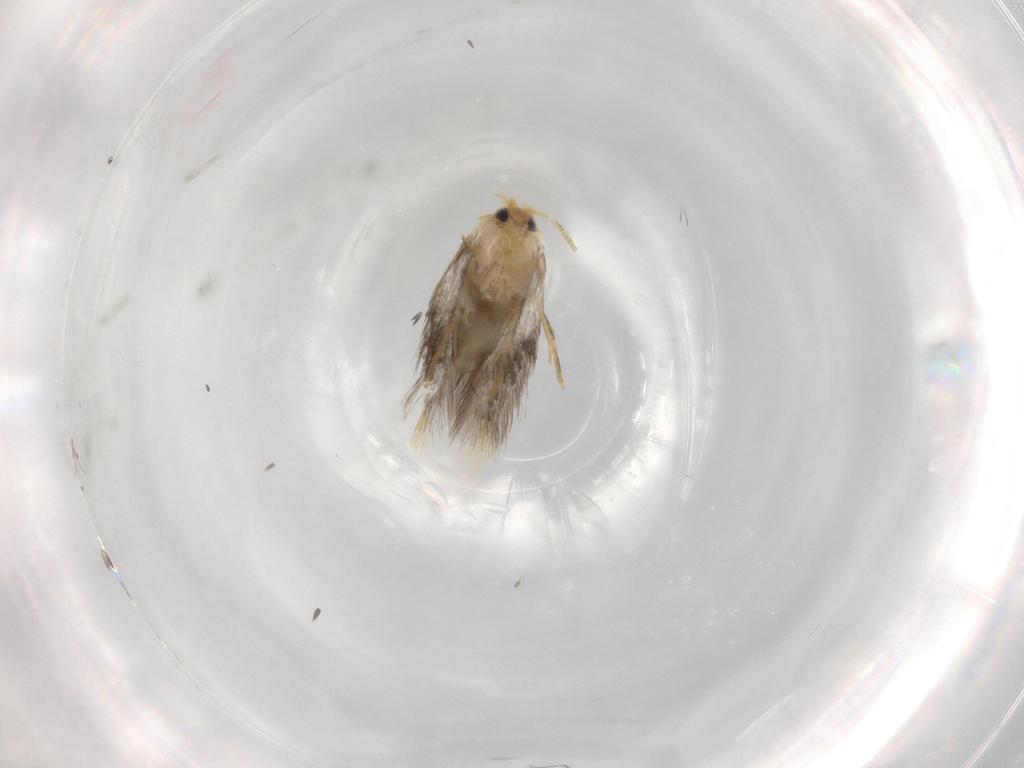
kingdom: Animalia
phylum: Arthropoda
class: Insecta
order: Lepidoptera
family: Nepticulidae
